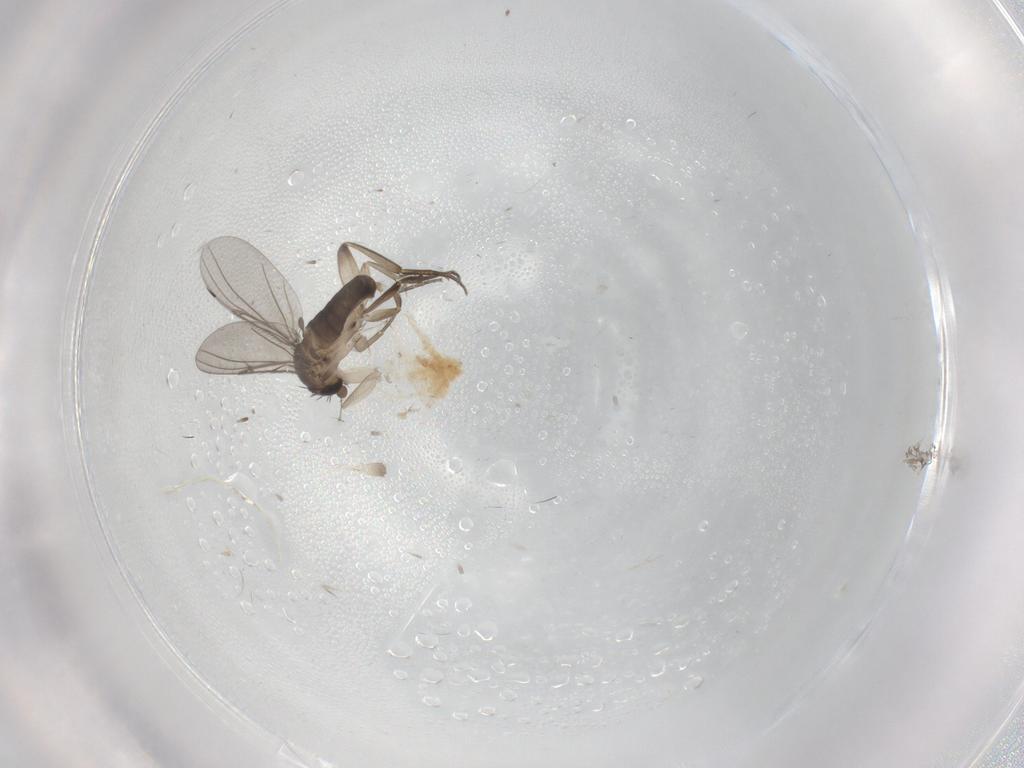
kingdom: Animalia
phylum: Arthropoda
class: Insecta
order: Diptera
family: Phoridae
